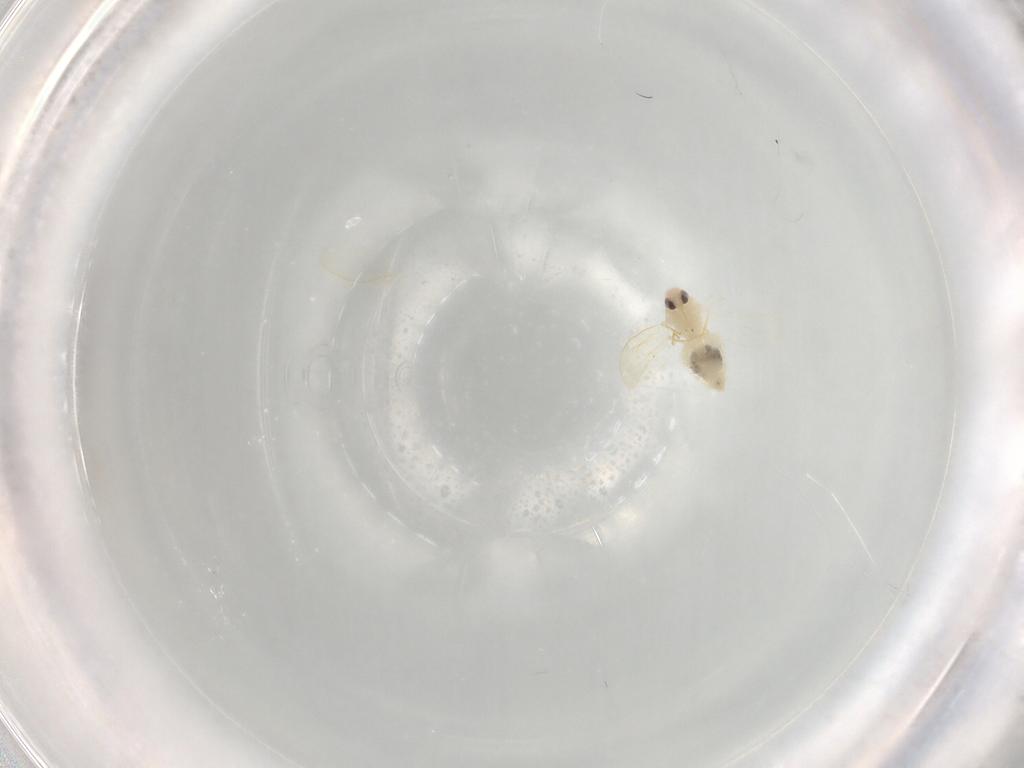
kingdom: Animalia
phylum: Arthropoda
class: Insecta
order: Hemiptera
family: Aleyrodidae
